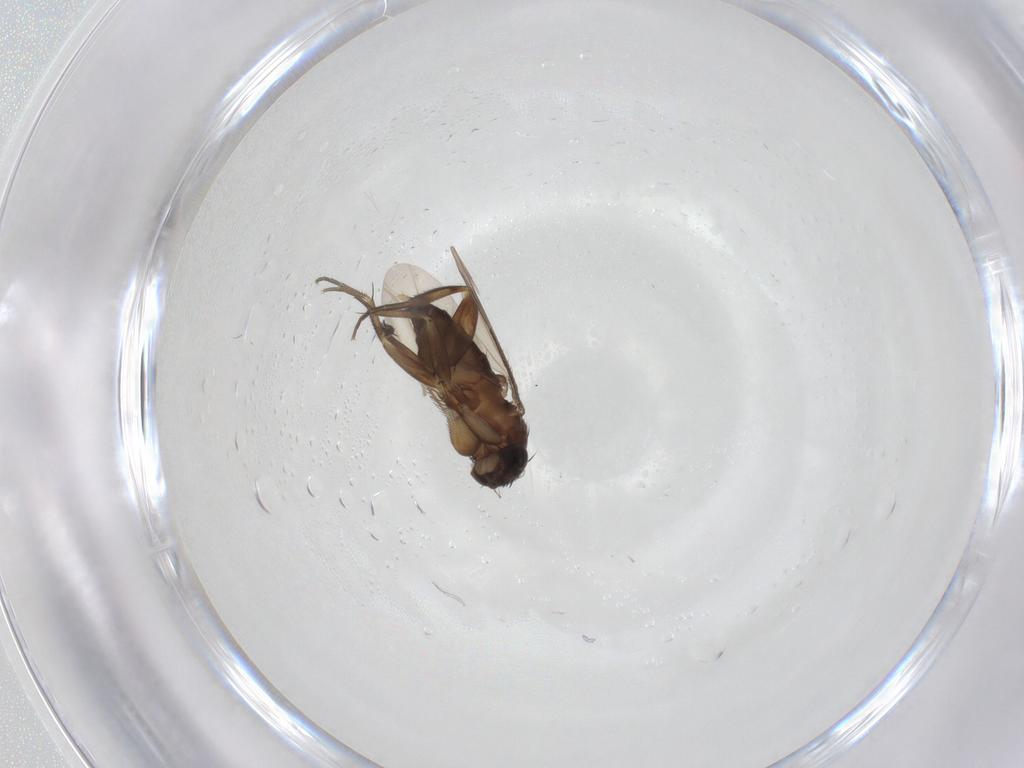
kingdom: Animalia
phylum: Arthropoda
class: Insecta
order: Diptera
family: Phoridae
